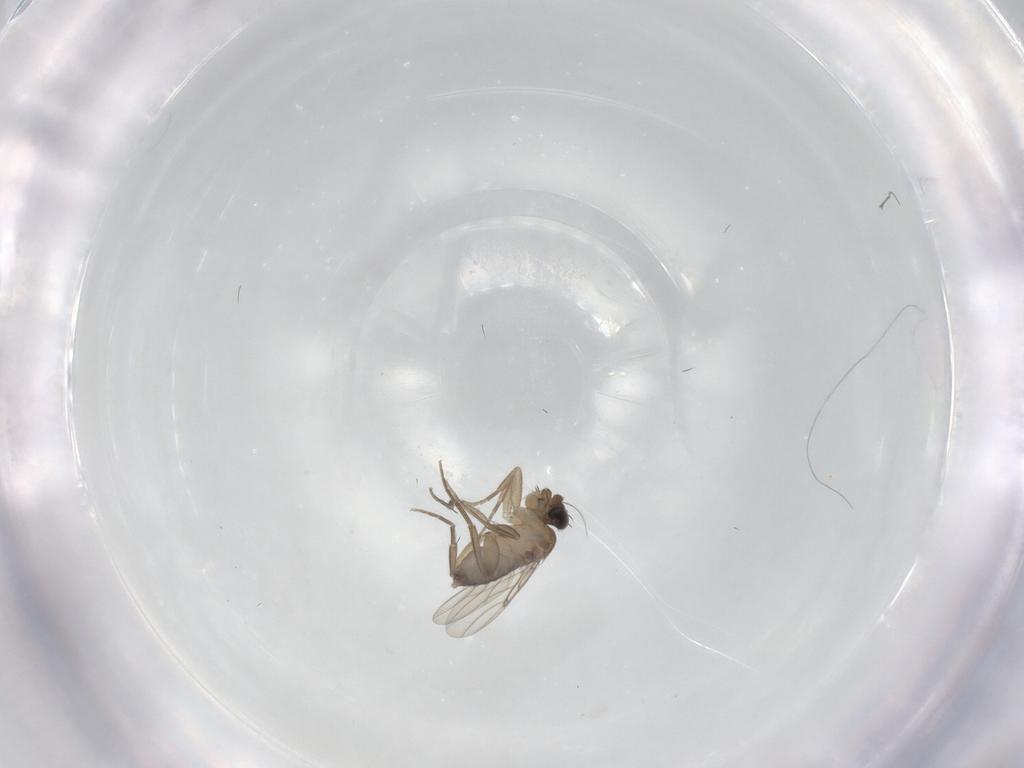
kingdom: Animalia
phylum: Arthropoda
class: Insecta
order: Diptera
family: Phoridae
